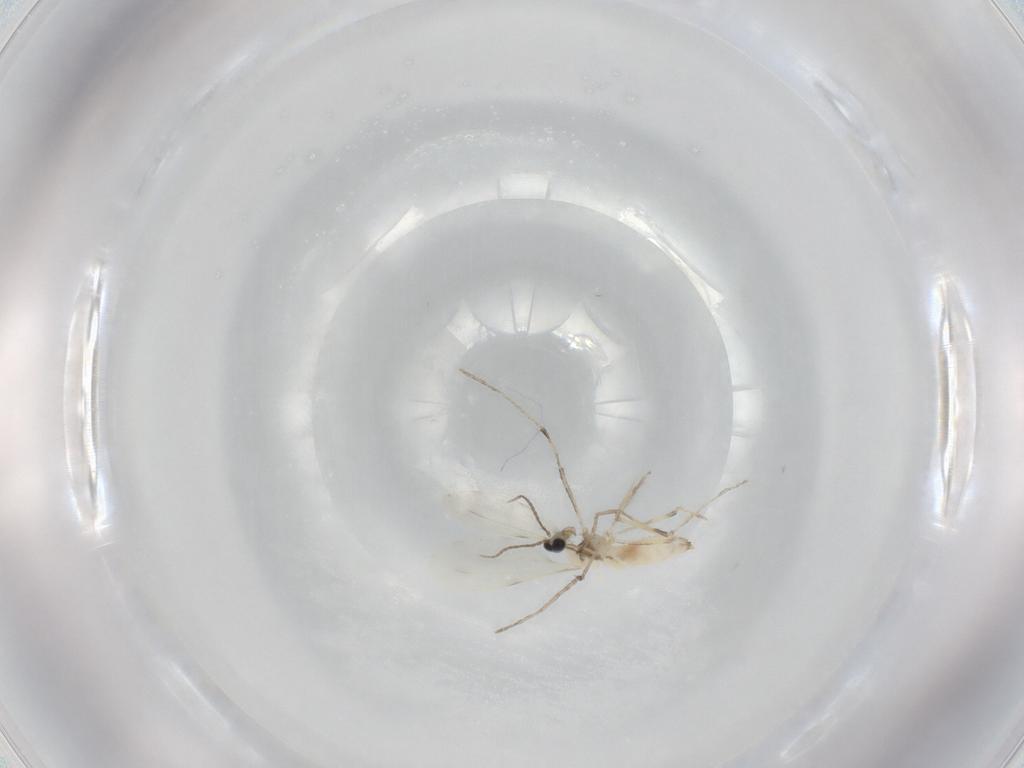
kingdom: Animalia
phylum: Arthropoda
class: Insecta
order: Diptera
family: Cecidomyiidae
